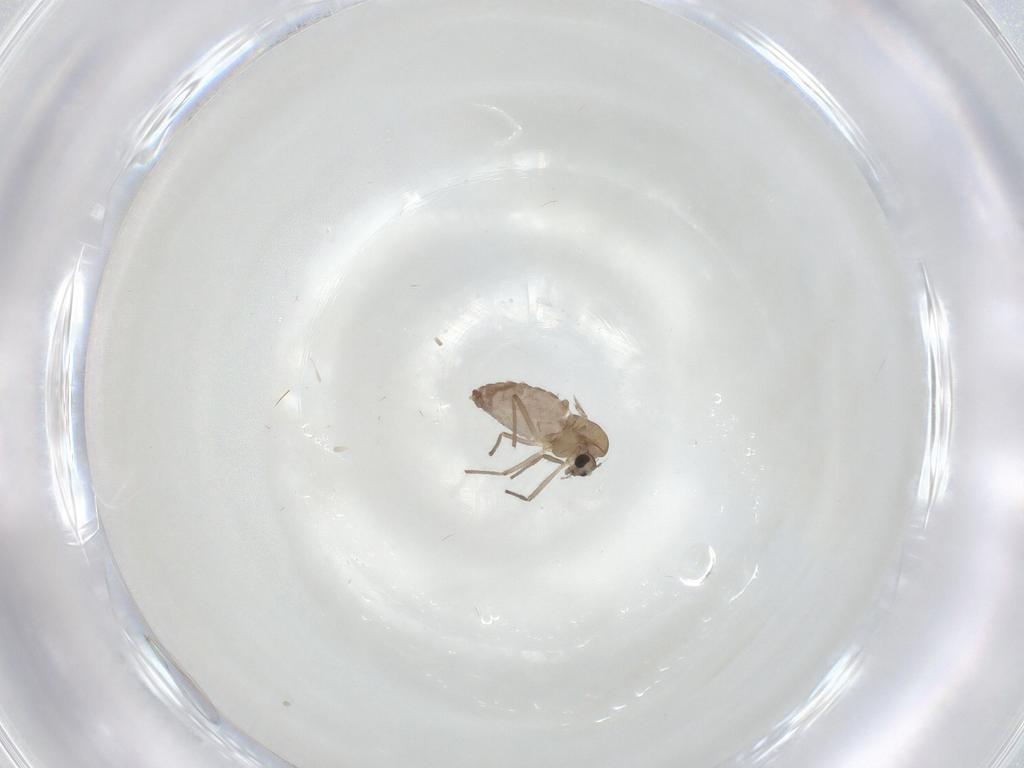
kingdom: Animalia
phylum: Arthropoda
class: Insecta
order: Diptera
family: Chironomidae
